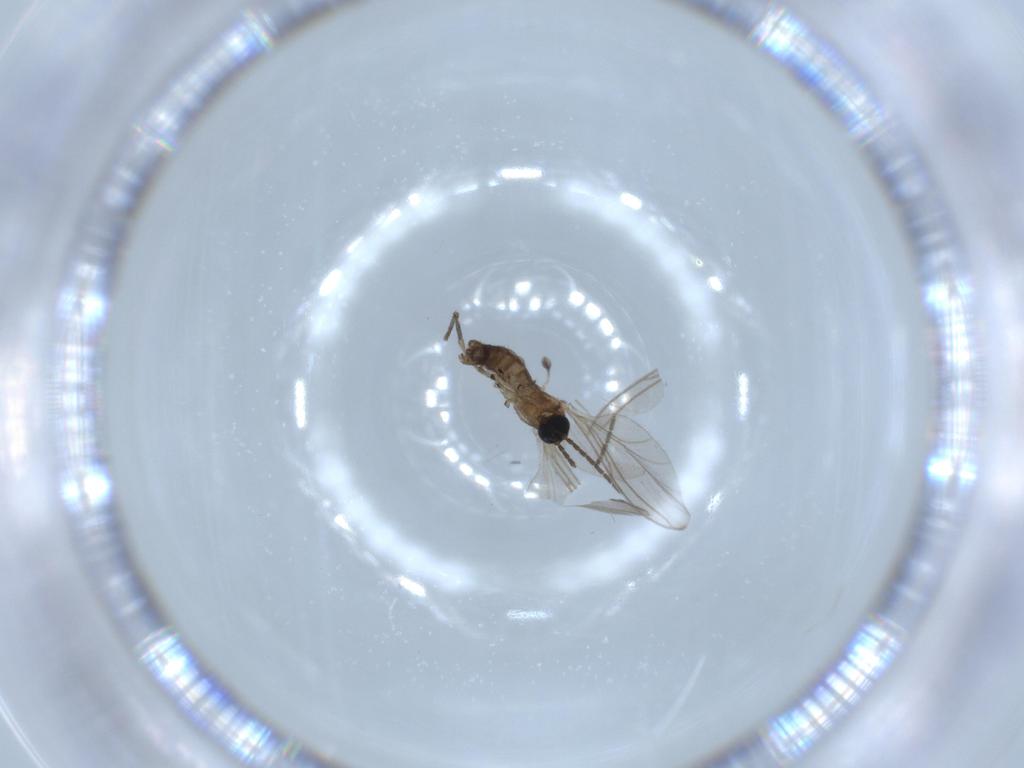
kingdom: Animalia
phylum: Arthropoda
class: Insecta
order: Diptera
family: Sciaridae
